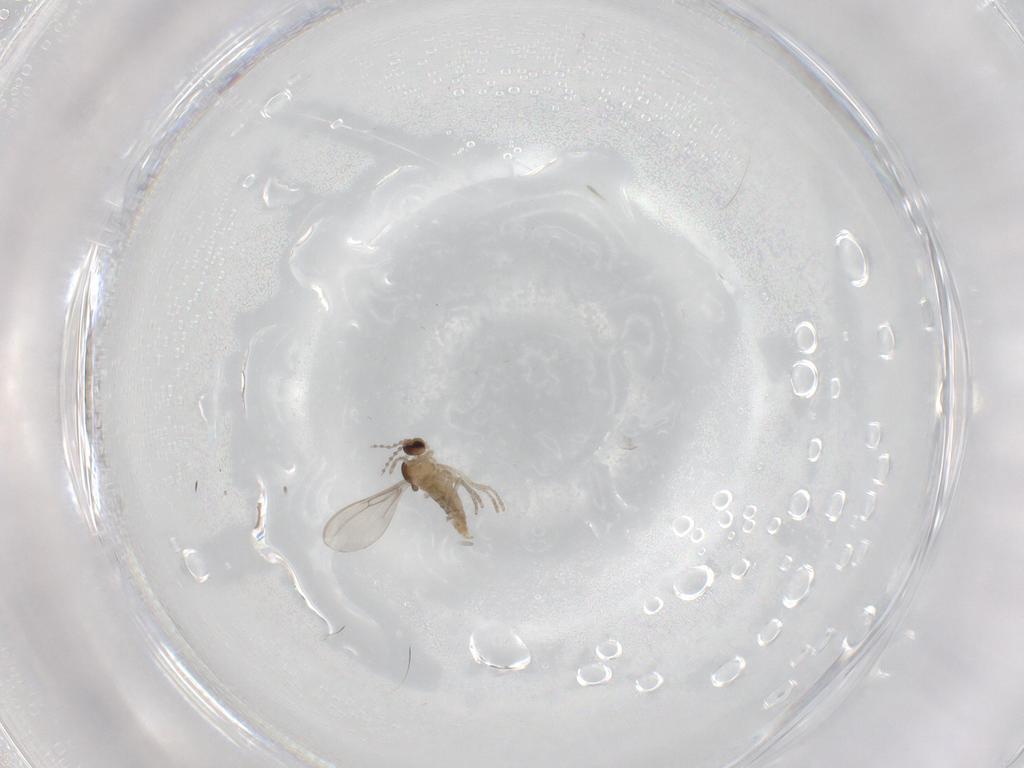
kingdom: Animalia
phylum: Arthropoda
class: Insecta
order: Diptera
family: Cecidomyiidae
